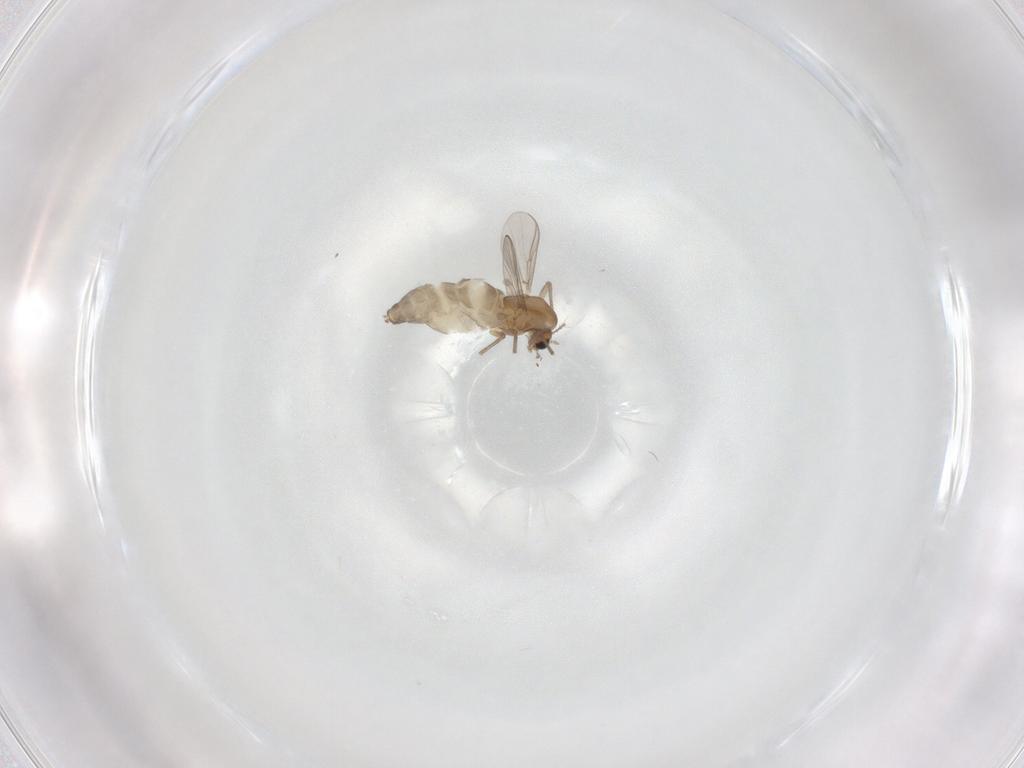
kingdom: Animalia
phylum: Arthropoda
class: Insecta
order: Diptera
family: Chironomidae
